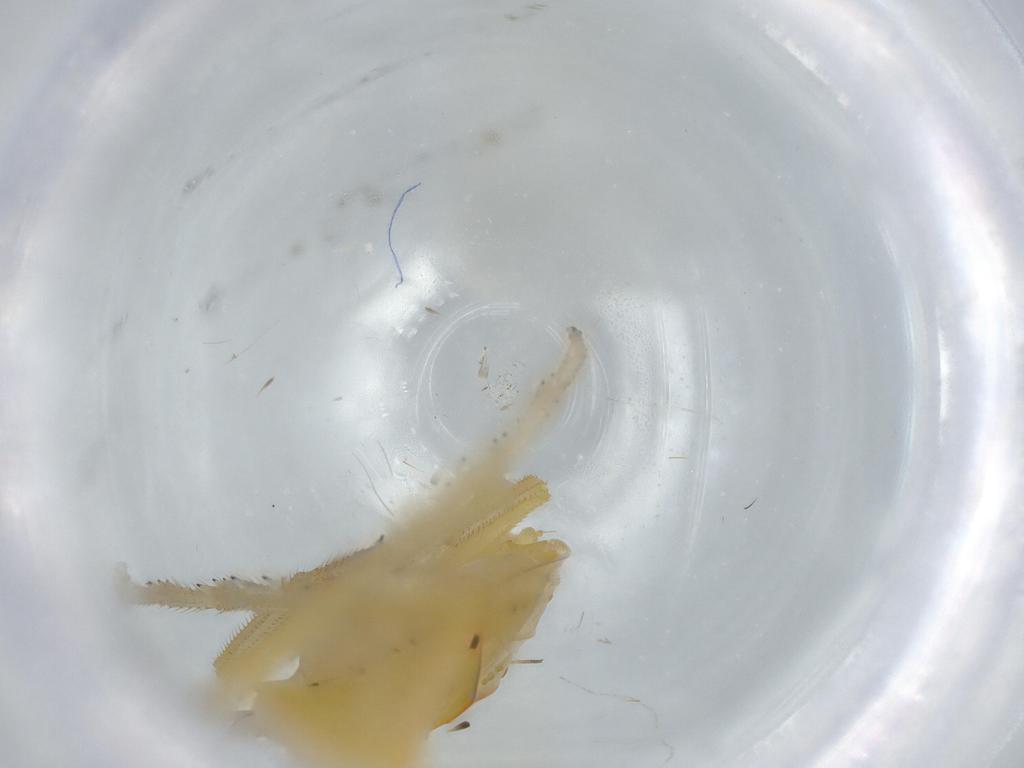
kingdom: Animalia
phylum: Arthropoda
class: Insecta
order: Hemiptera
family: Tropiduchidae
